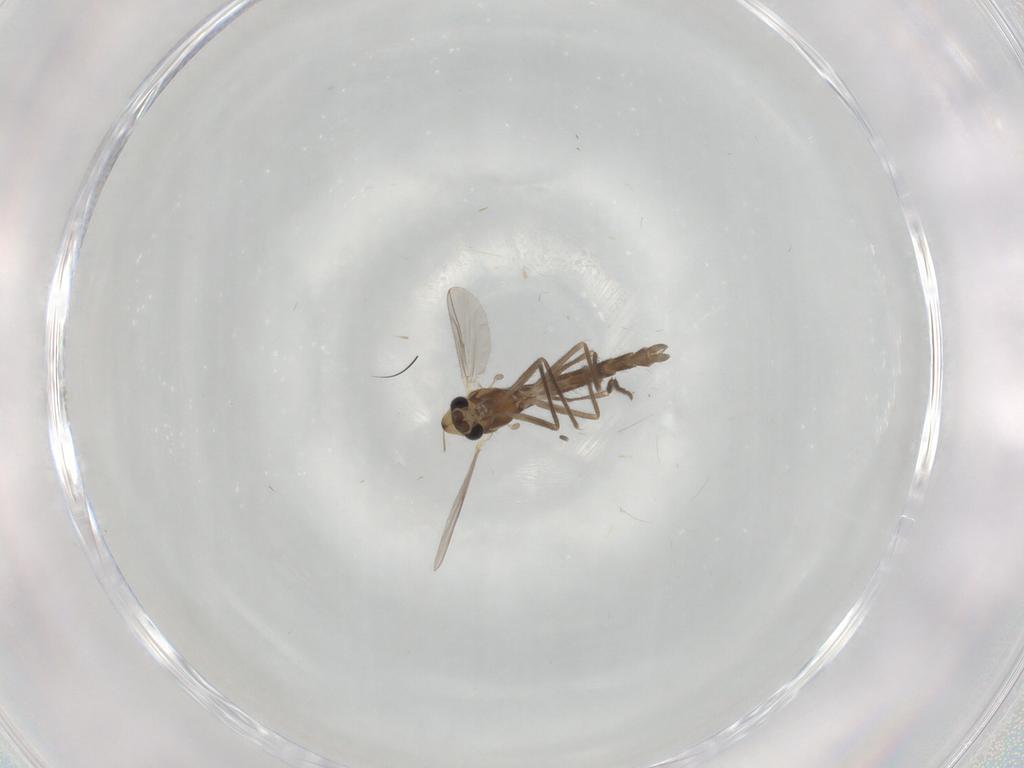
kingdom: Animalia
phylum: Arthropoda
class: Insecta
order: Diptera
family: Chironomidae
